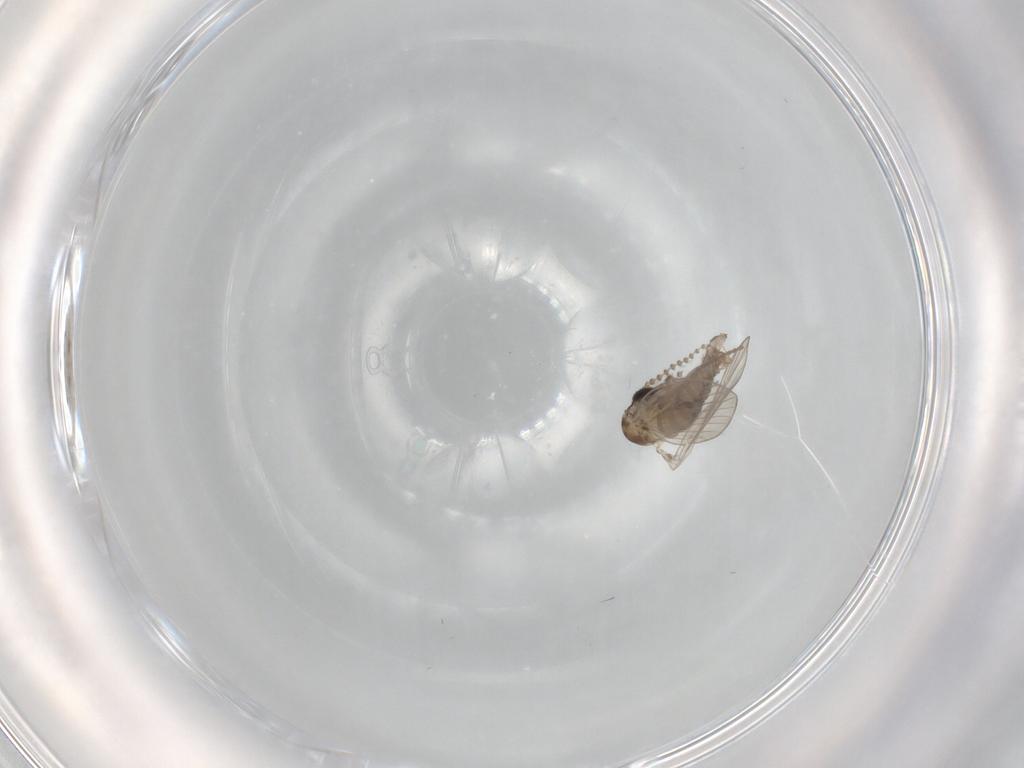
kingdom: Animalia
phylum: Arthropoda
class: Insecta
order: Diptera
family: Psychodidae
